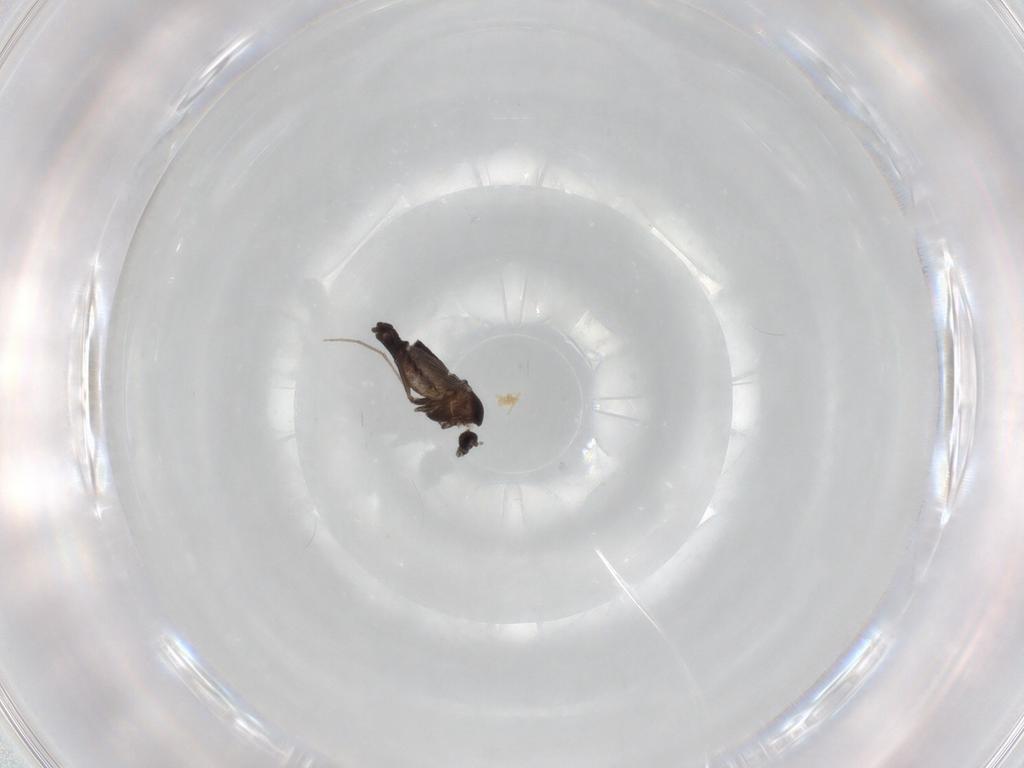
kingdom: Animalia
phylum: Arthropoda
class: Insecta
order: Diptera
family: Chironomidae
